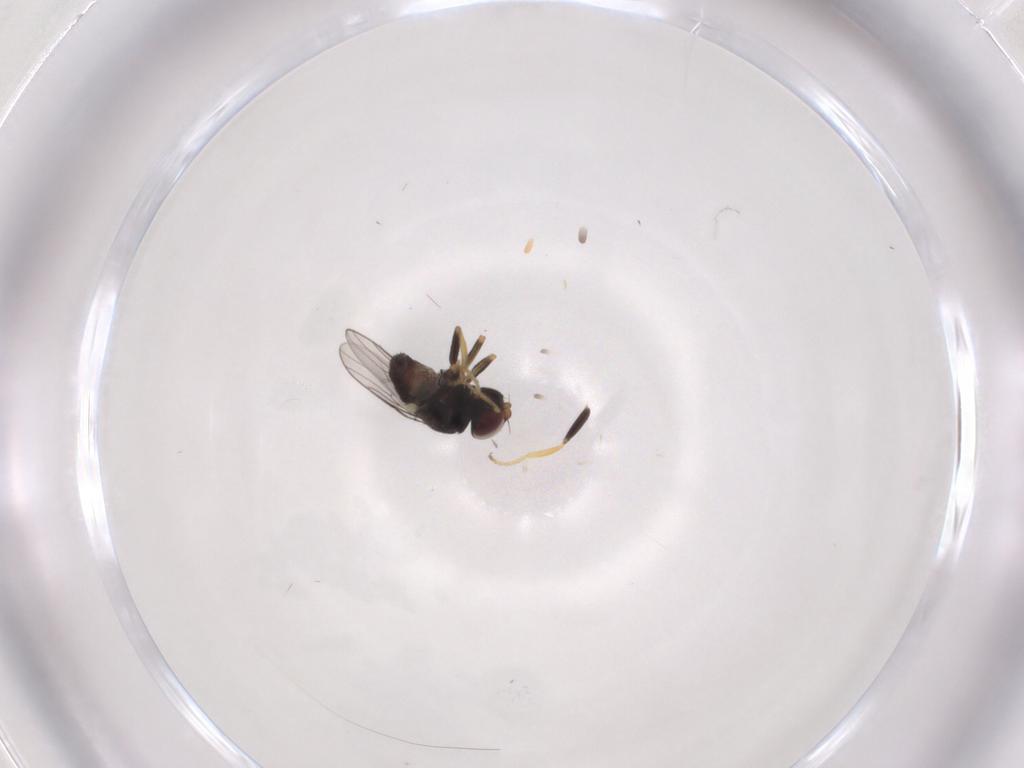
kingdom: Animalia
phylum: Arthropoda
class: Insecta
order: Diptera
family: Chloropidae
